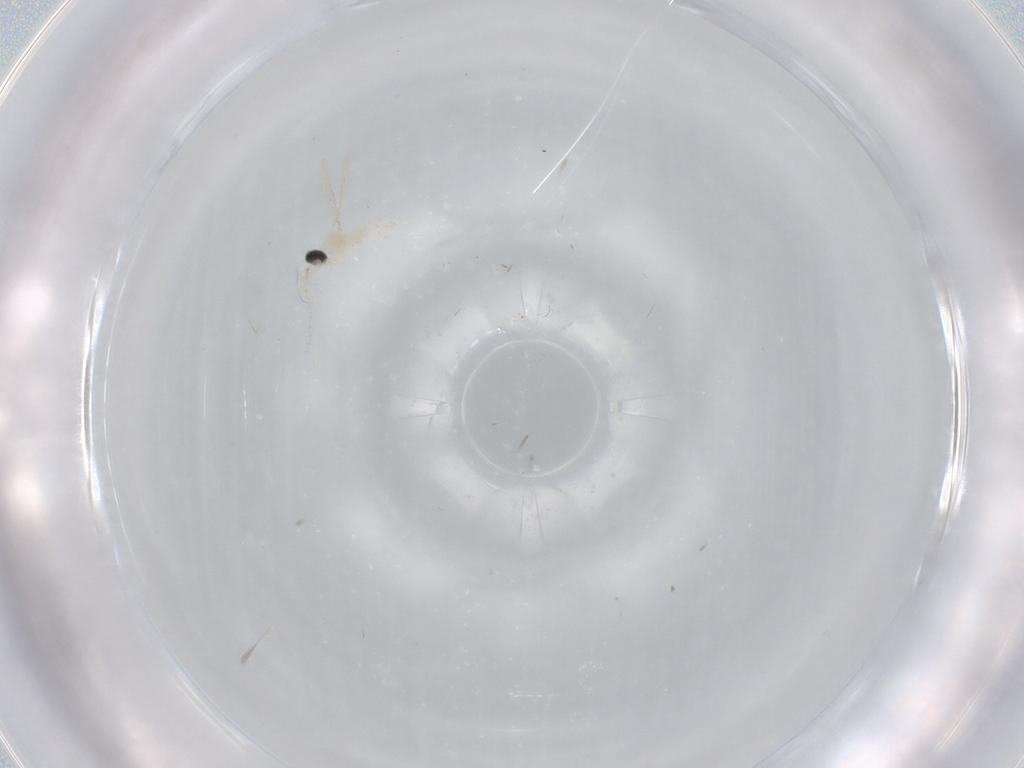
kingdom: Animalia
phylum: Arthropoda
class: Insecta
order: Diptera
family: Cecidomyiidae
